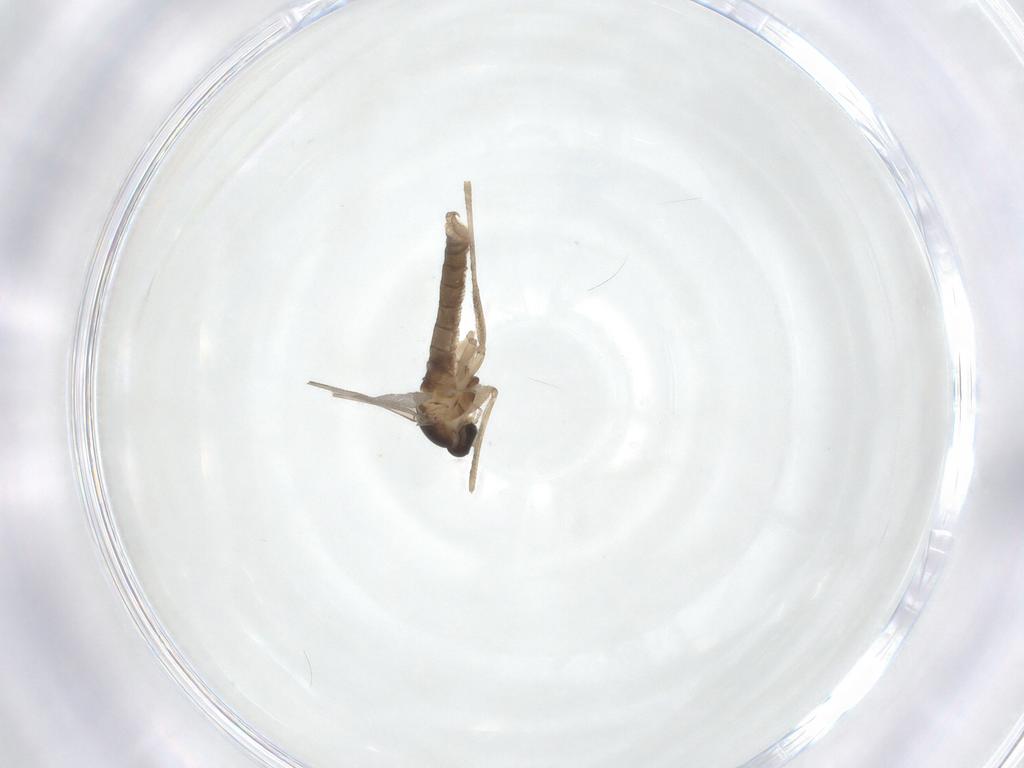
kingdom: Animalia
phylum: Arthropoda
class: Insecta
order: Diptera
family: Cecidomyiidae
